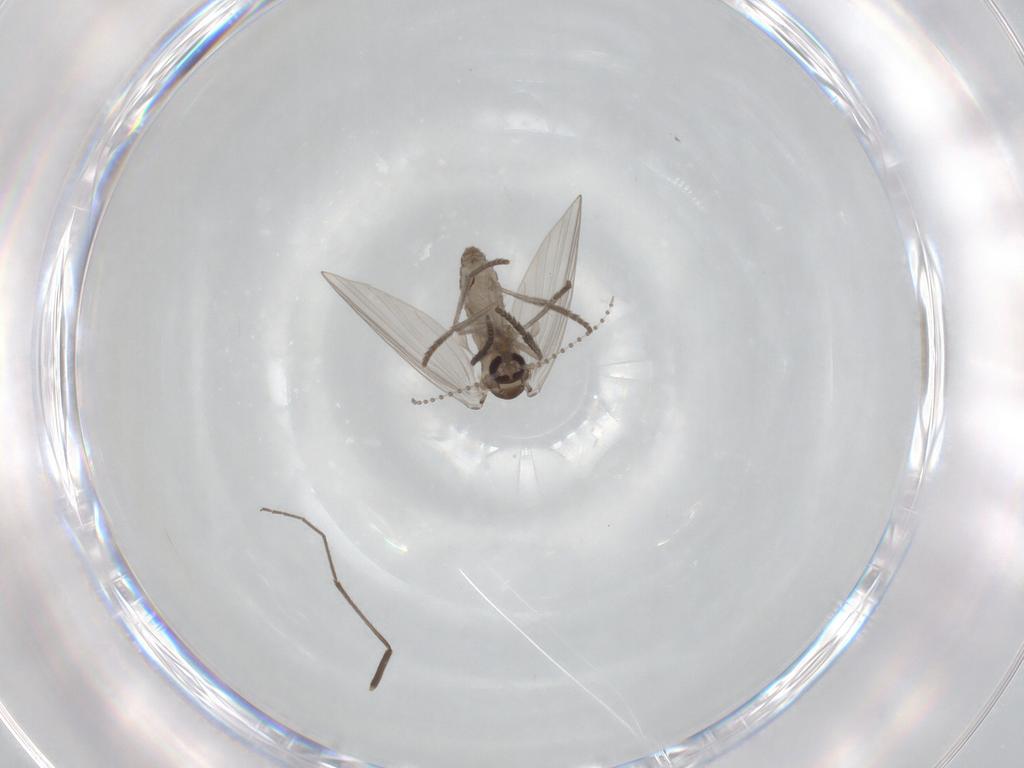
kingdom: Animalia
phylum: Arthropoda
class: Insecta
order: Diptera
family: Psychodidae
